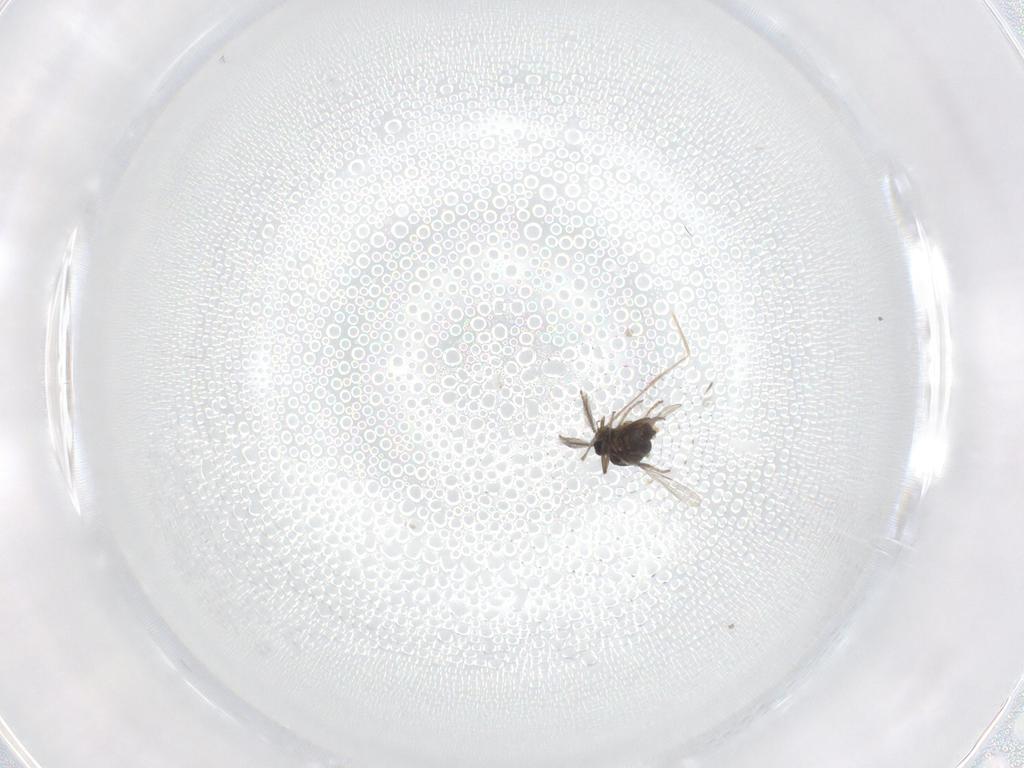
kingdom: Animalia
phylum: Arthropoda
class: Insecta
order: Diptera
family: Ceratopogonidae
